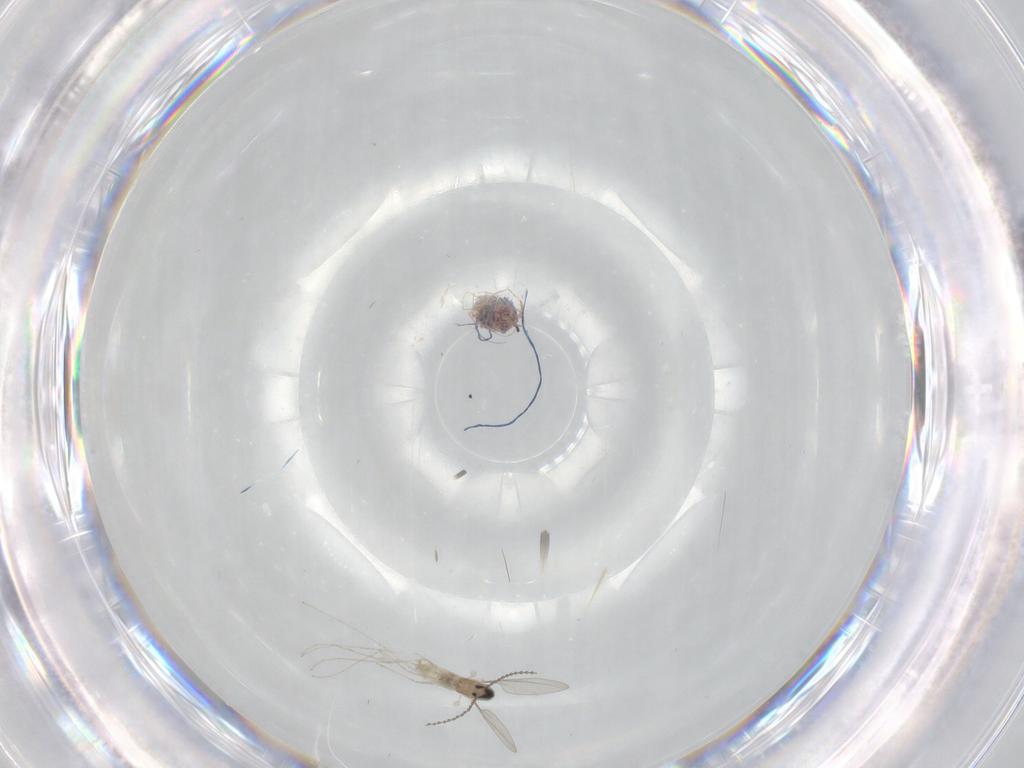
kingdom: Animalia
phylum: Arthropoda
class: Insecta
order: Diptera
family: Cecidomyiidae
